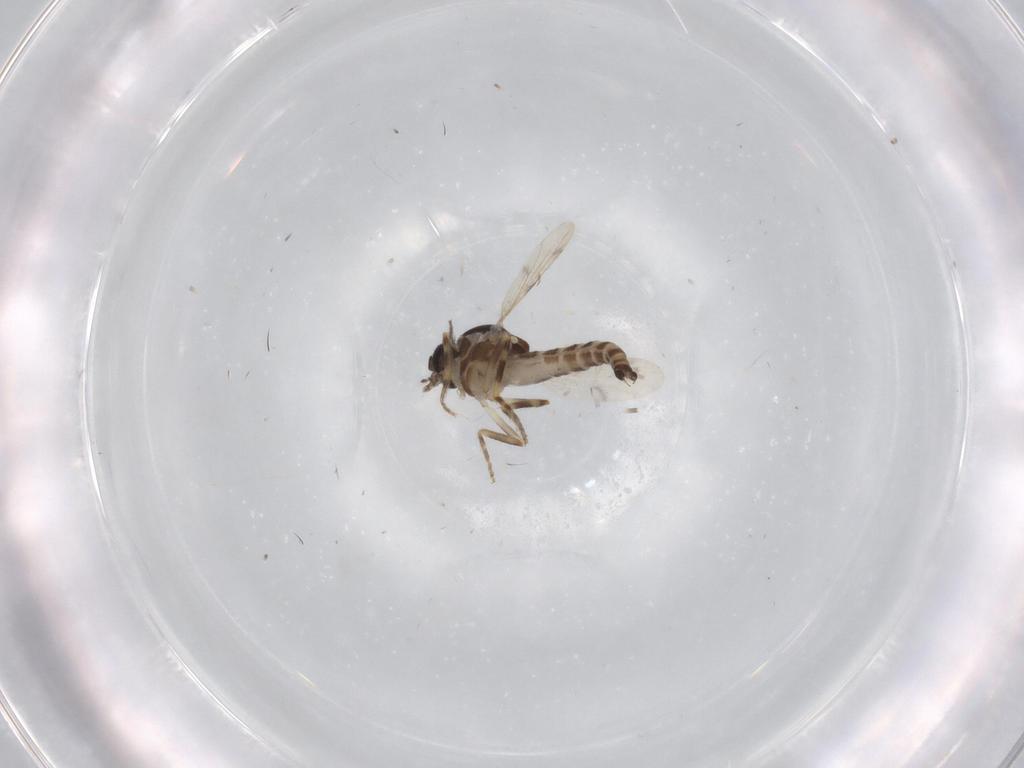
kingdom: Animalia
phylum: Arthropoda
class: Insecta
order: Diptera
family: Ceratopogonidae
